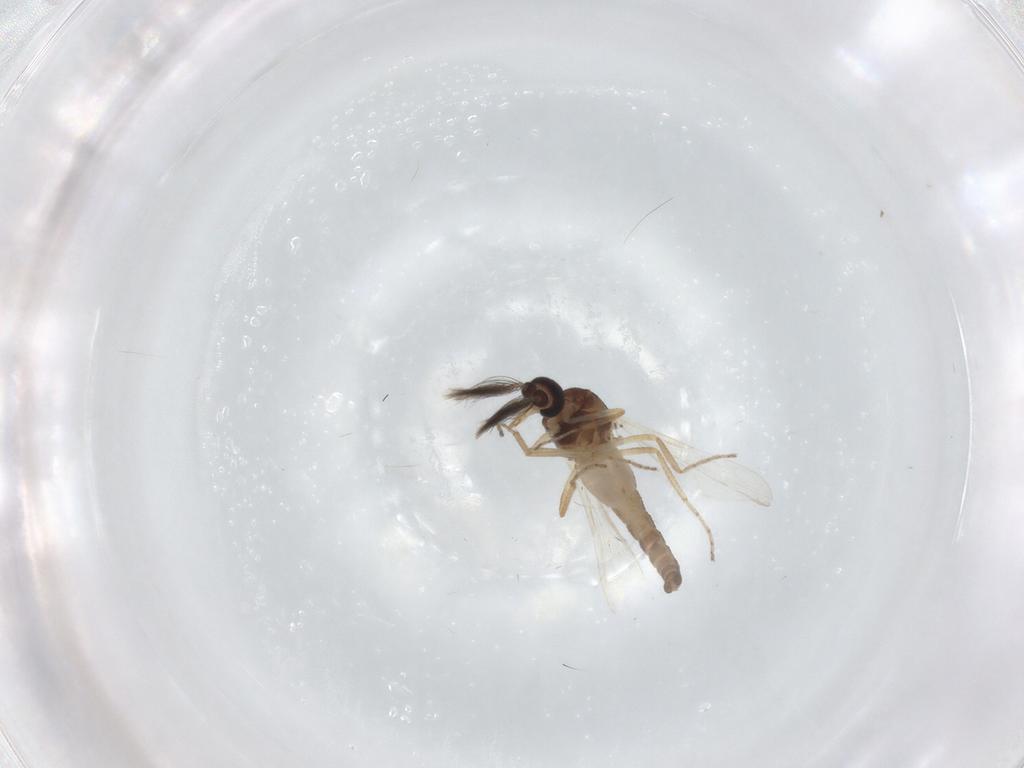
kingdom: Animalia
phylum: Arthropoda
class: Insecta
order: Diptera
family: Ceratopogonidae
